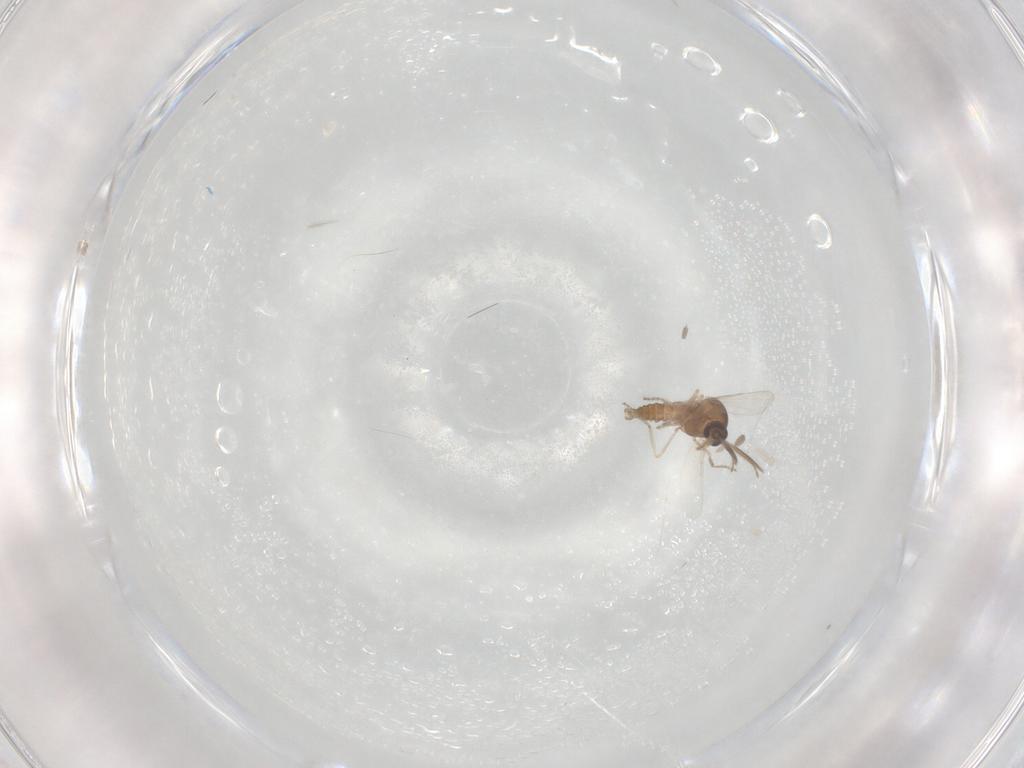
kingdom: Animalia
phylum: Arthropoda
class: Insecta
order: Diptera
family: Ceratopogonidae
